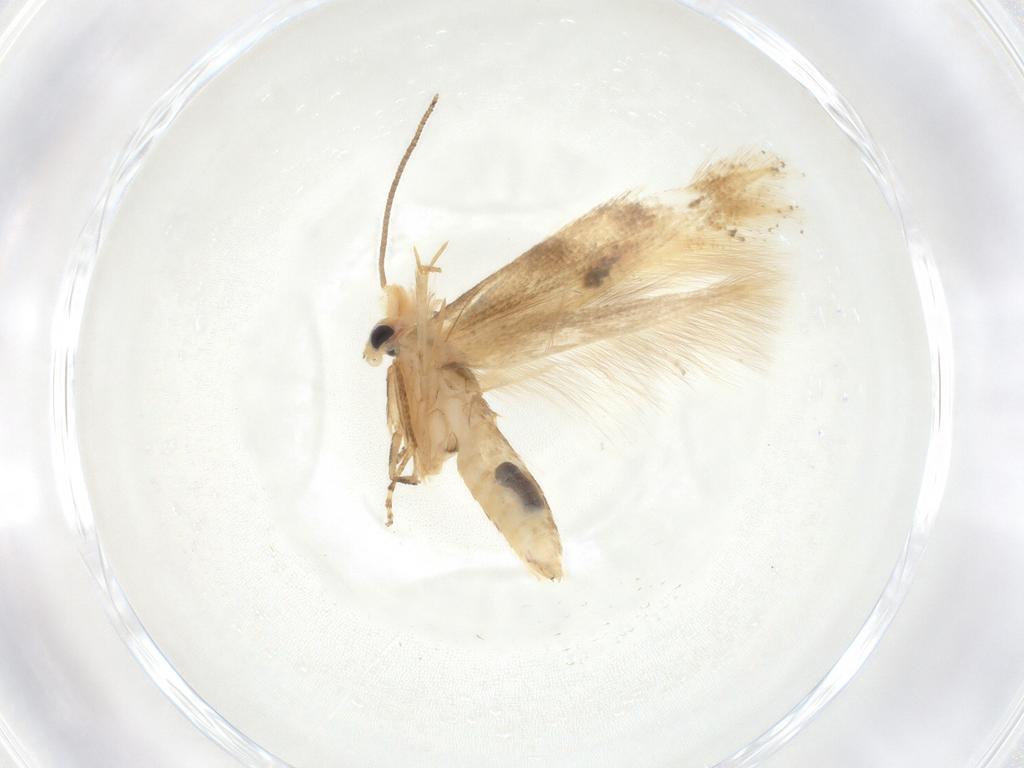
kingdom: Animalia
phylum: Arthropoda
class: Insecta
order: Lepidoptera
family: Bucculatricidae
